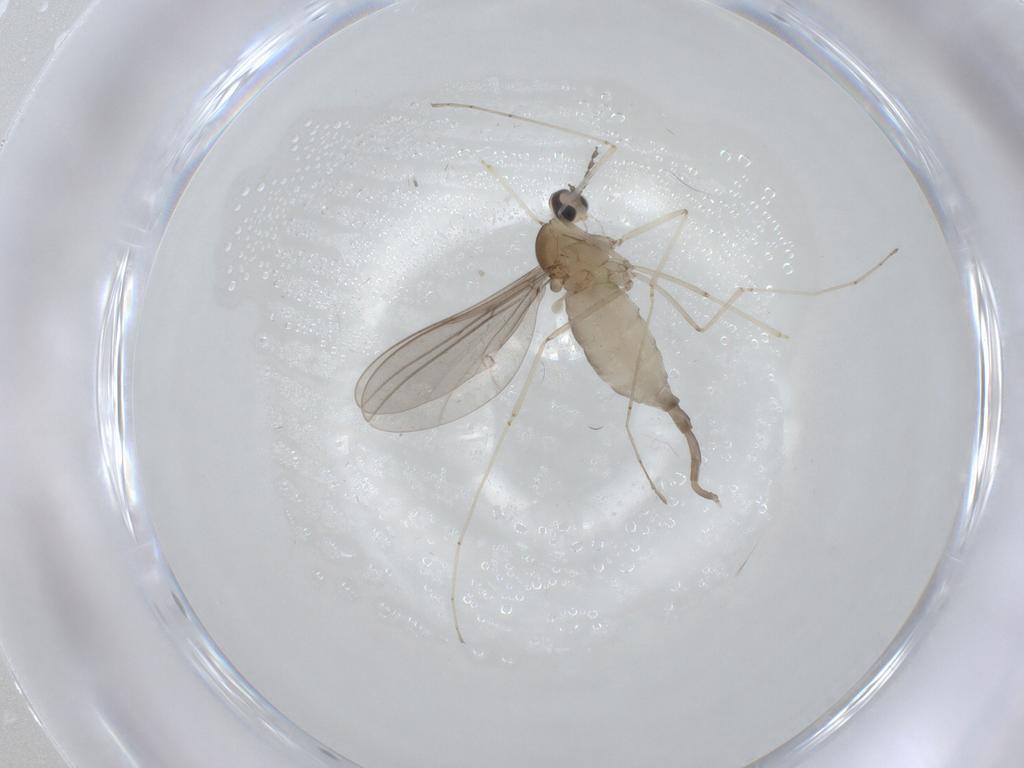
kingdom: Animalia
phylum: Arthropoda
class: Insecta
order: Diptera
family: Cecidomyiidae
